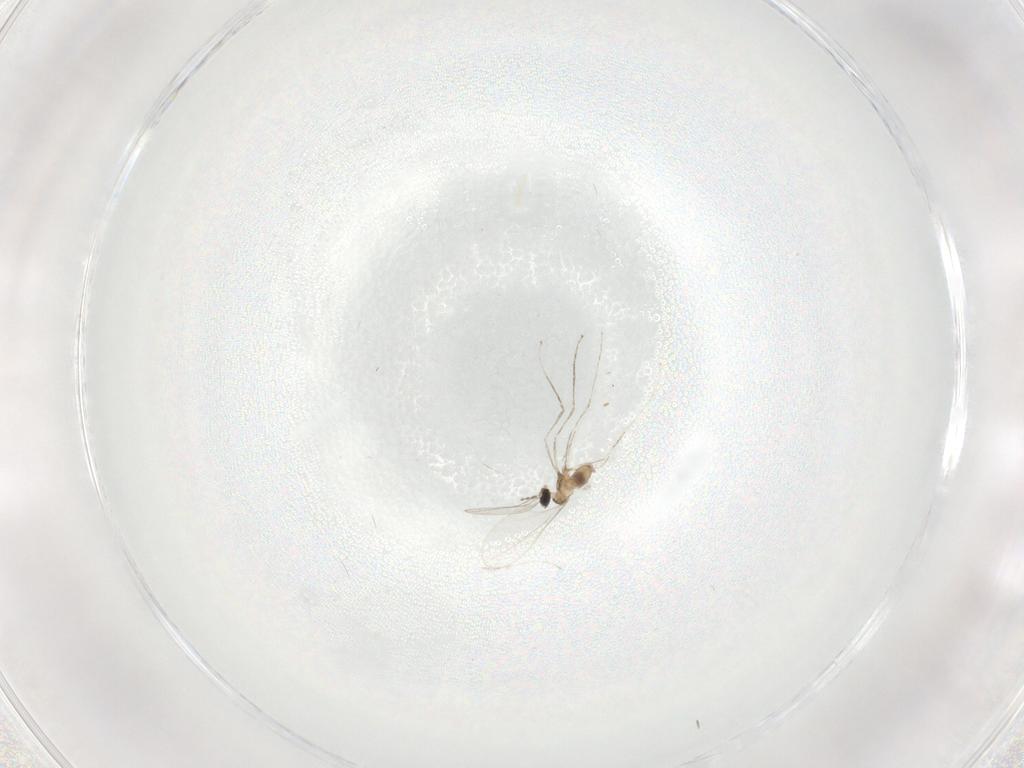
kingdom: Animalia
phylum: Arthropoda
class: Insecta
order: Diptera
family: Cecidomyiidae
